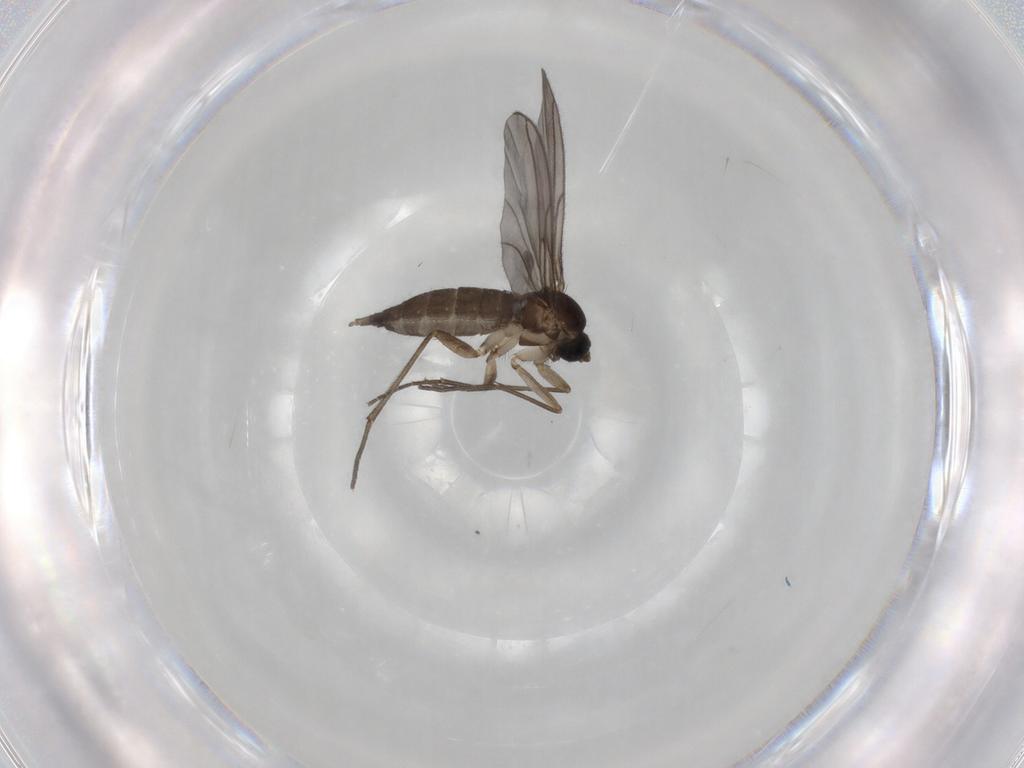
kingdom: Animalia
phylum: Arthropoda
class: Insecta
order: Diptera
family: Sciaridae
